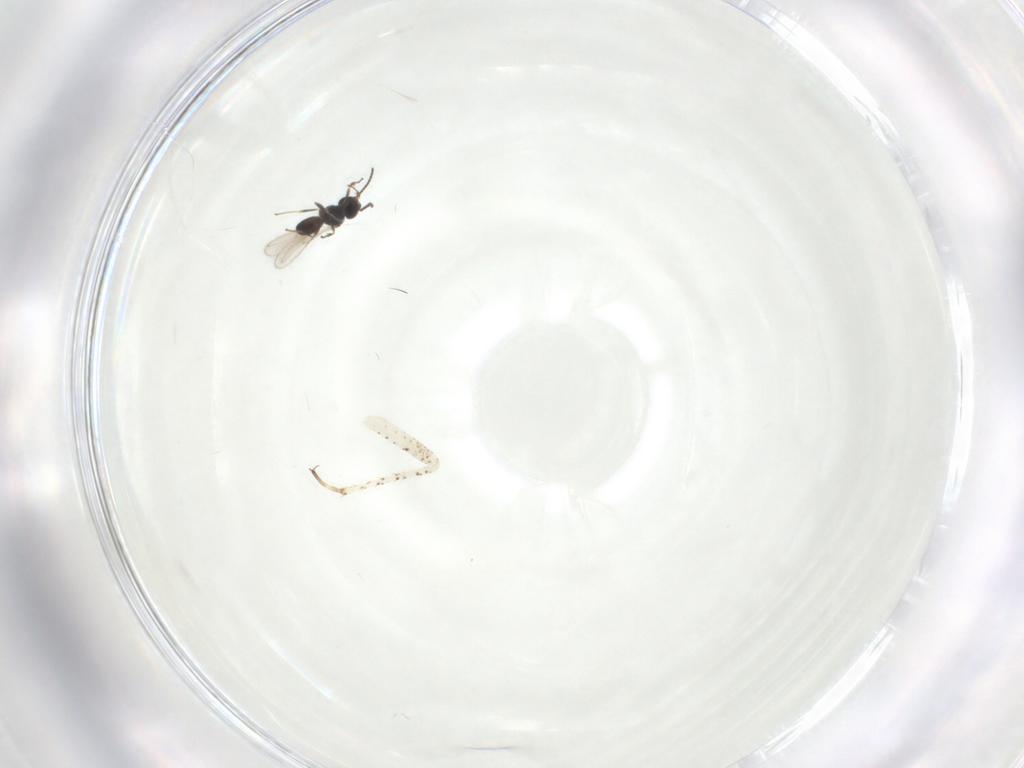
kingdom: Animalia
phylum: Arthropoda
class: Insecta
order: Hymenoptera
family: Scelionidae
